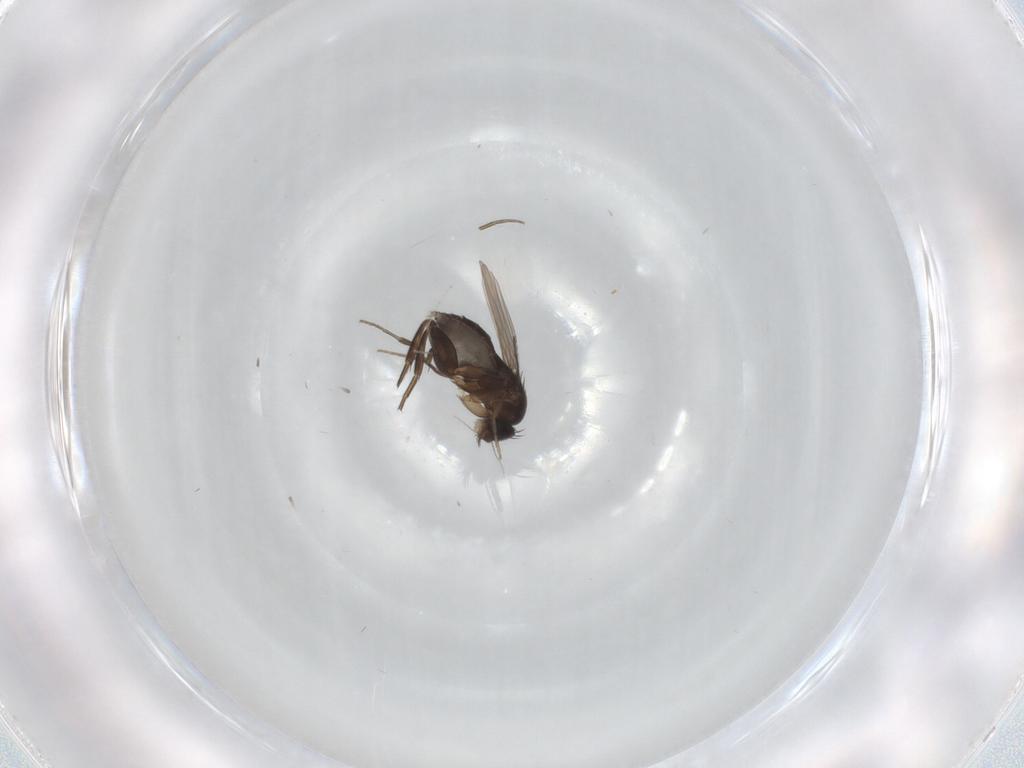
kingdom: Animalia
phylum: Arthropoda
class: Insecta
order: Diptera
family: Phoridae
